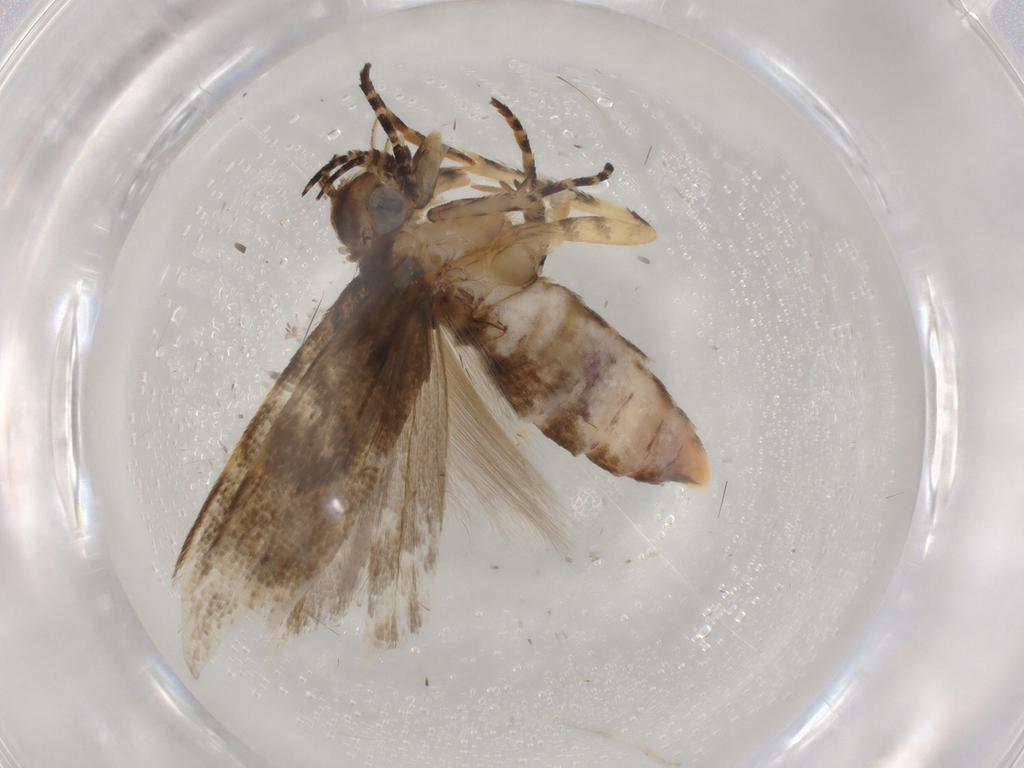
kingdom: Animalia
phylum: Arthropoda
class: Insecta
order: Lepidoptera
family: Gelechiidae
